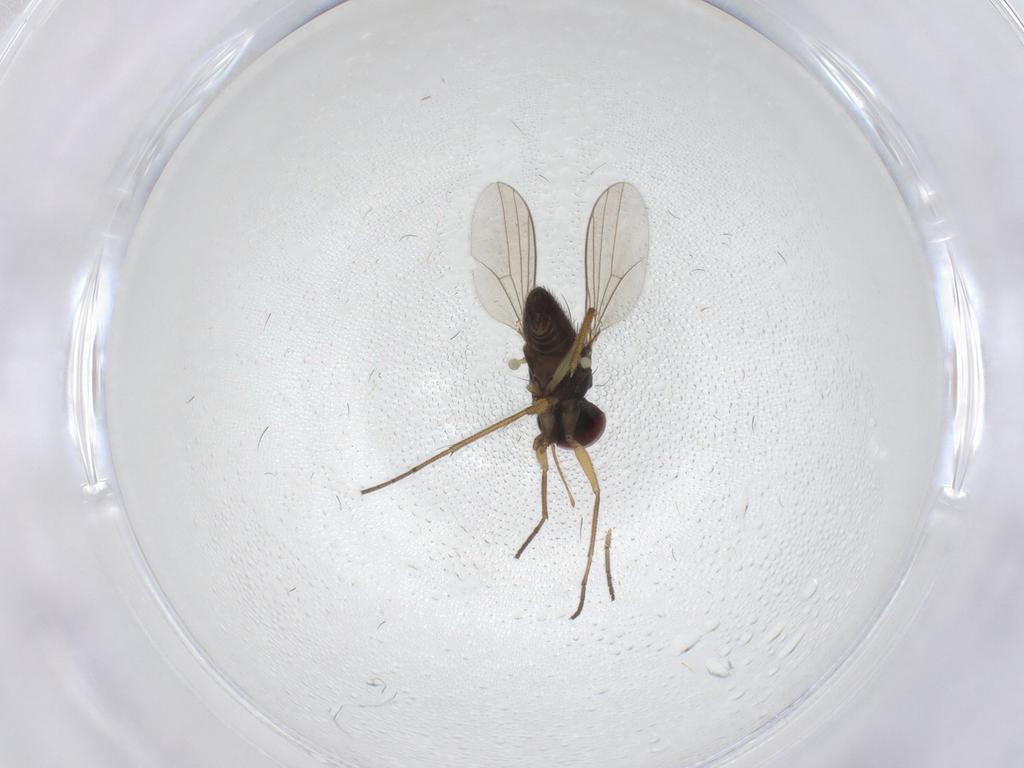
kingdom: Animalia
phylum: Arthropoda
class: Insecta
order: Diptera
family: Dolichopodidae
